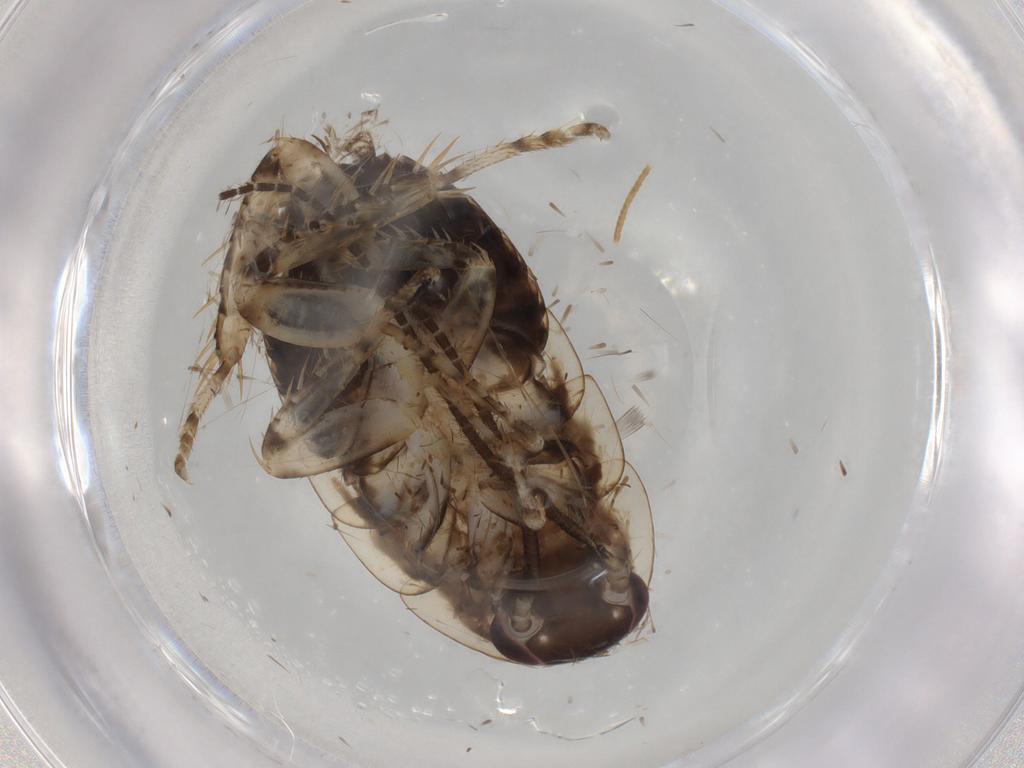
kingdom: Animalia
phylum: Arthropoda
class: Insecta
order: Blattodea
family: Blaberidae
